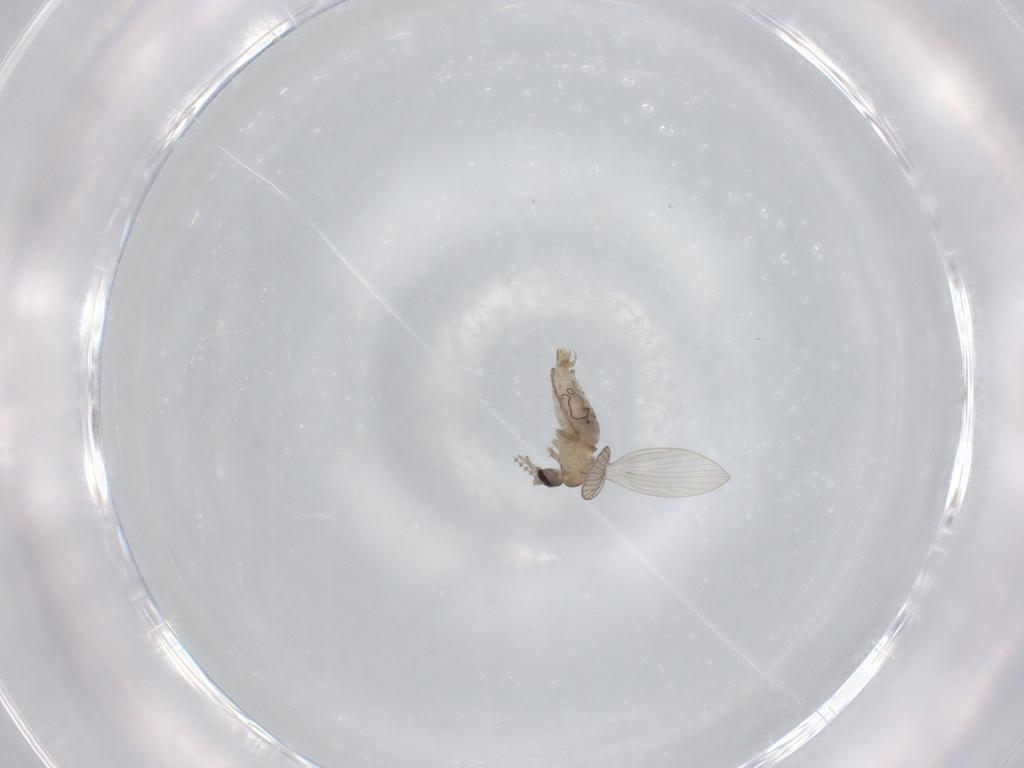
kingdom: Animalia
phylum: Arthropoda
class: Insecta
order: Diptera
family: Psychodidae
